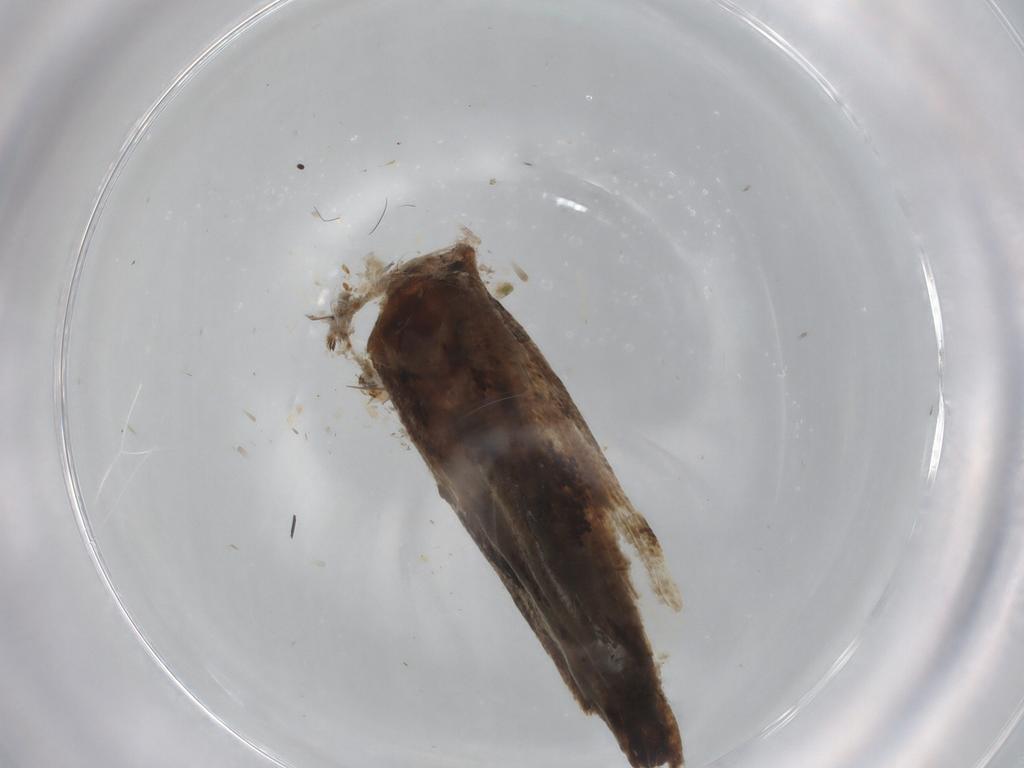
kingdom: Animalia
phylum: Arthropoda
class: Insecta
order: Lepidoptera
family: Geometridae
